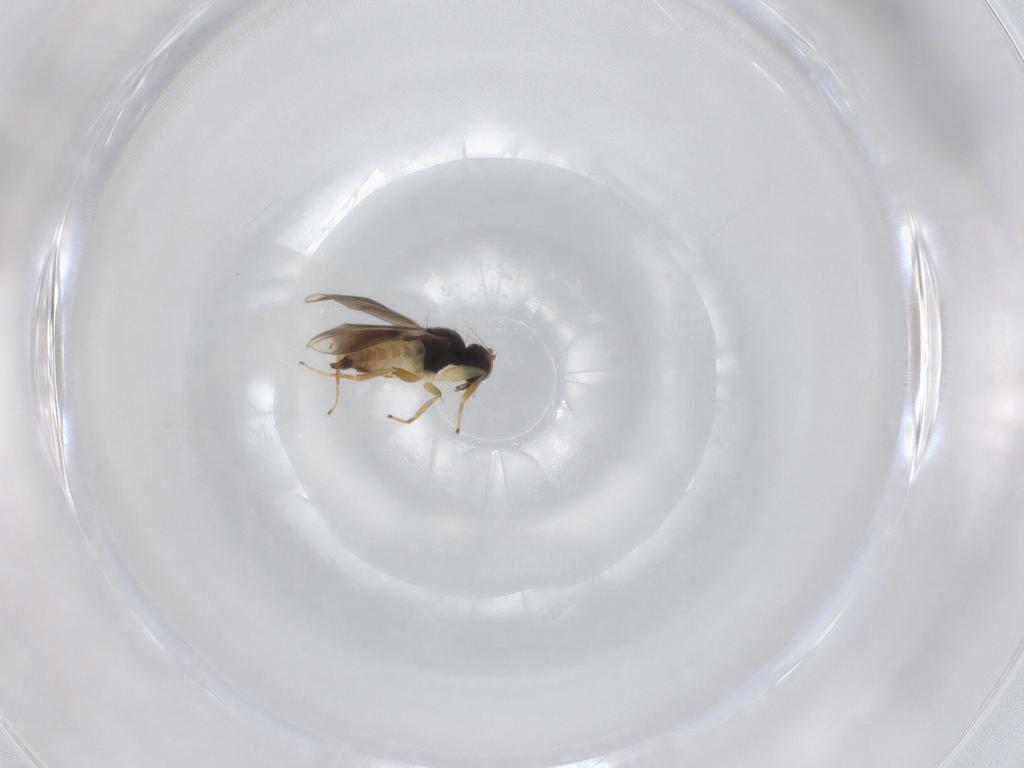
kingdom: Animalia
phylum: Arthropoda
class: Insecta
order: Diptera
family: Hybotidae
